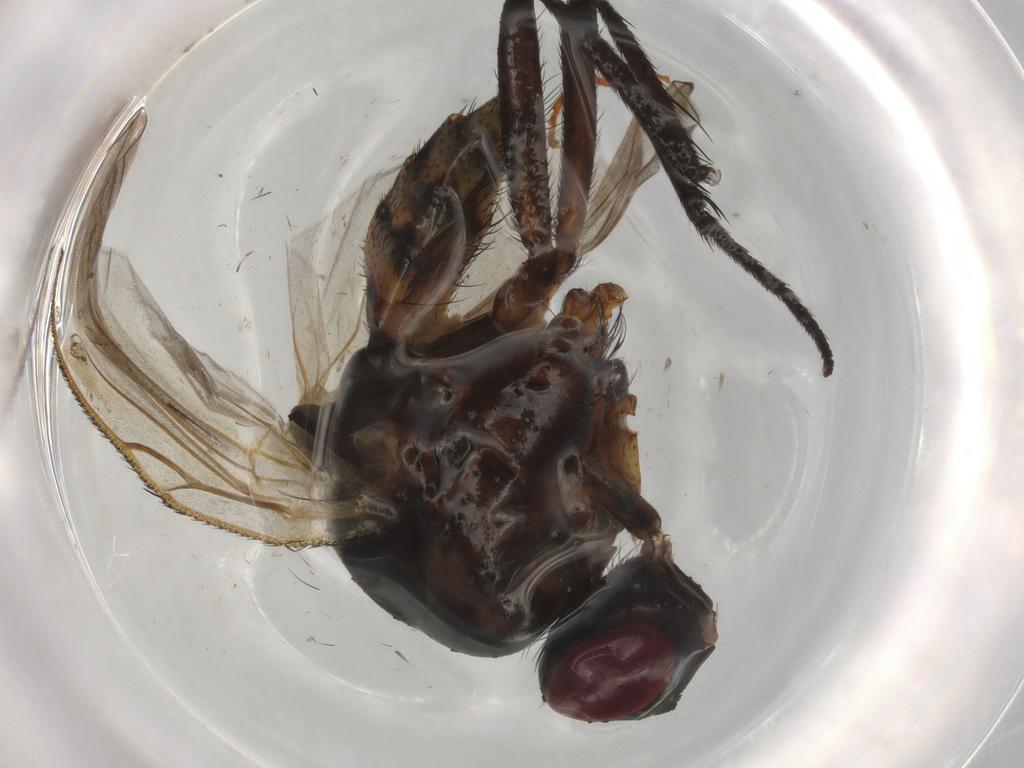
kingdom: Animalia
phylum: Arthropoda
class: Insecta
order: Diptera
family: Anthomyiidae
